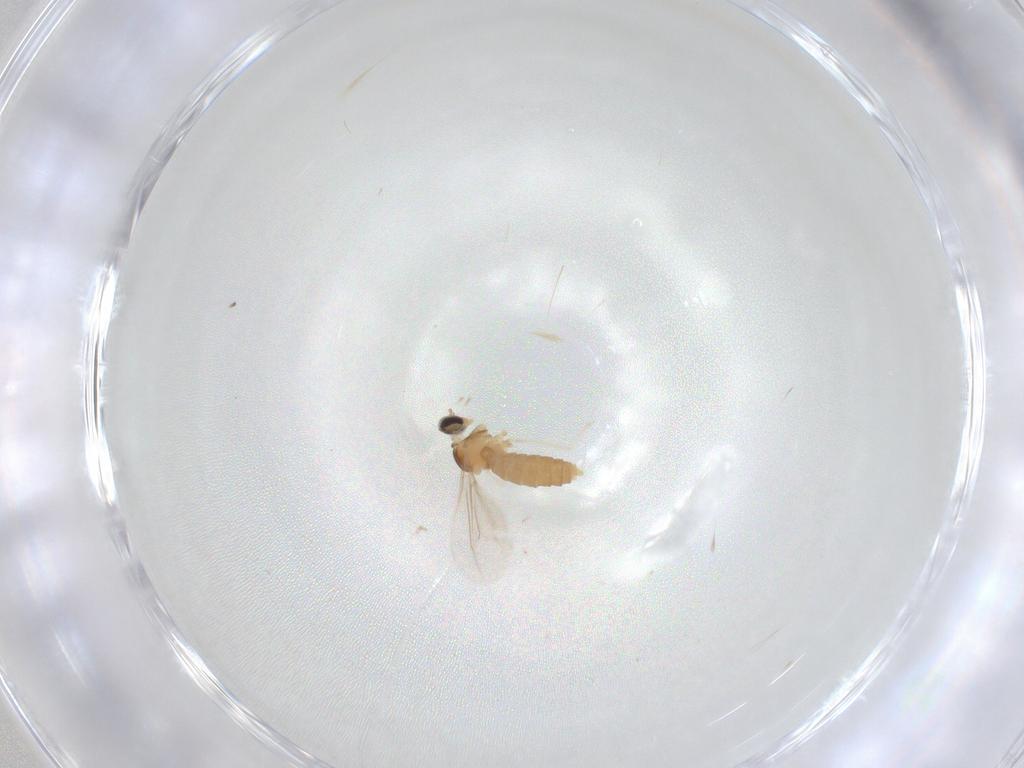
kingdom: Animalia
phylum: Arthropoda
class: Insecta
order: Diptera
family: Cecidomyiidae
